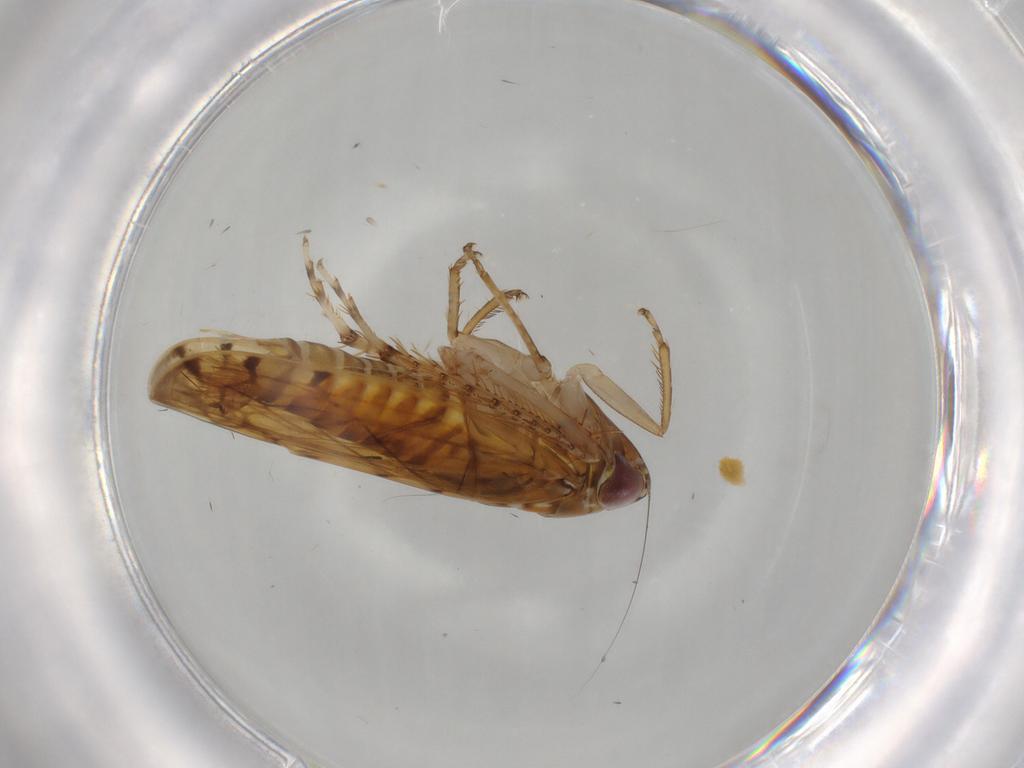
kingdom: Animalia
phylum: Arthropoda
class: Insecta
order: Hemiptera
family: Cicadellidae
